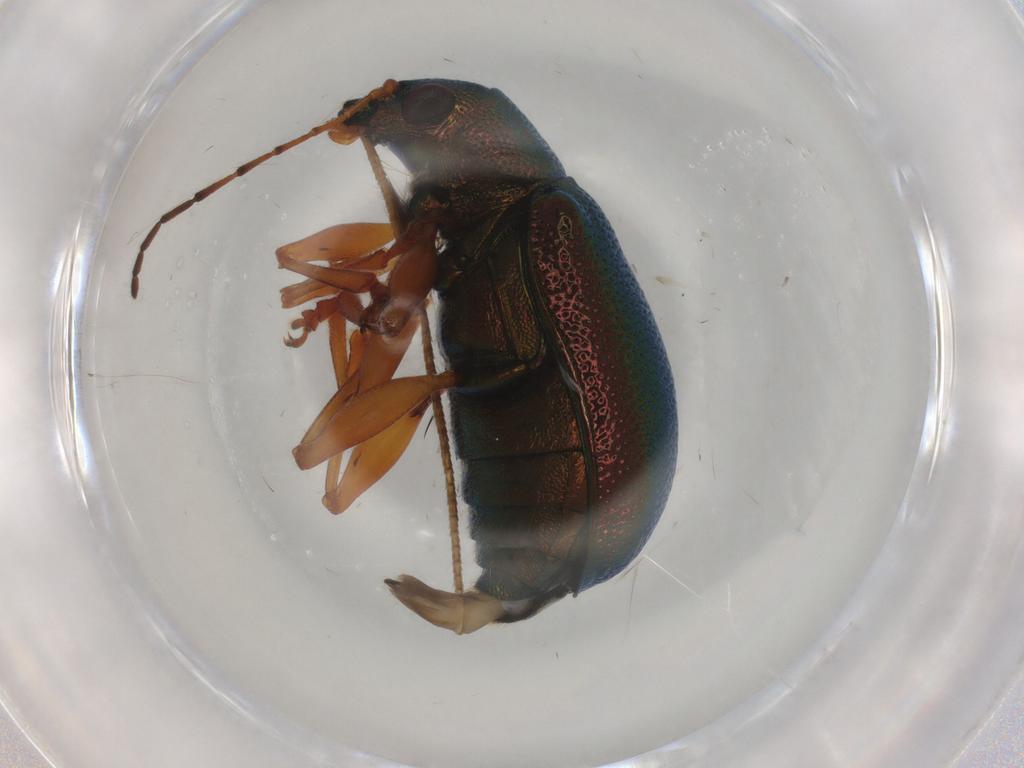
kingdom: Animalia
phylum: Arthropoda
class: Insecta
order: Coleoptera
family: Chrysomelidae
